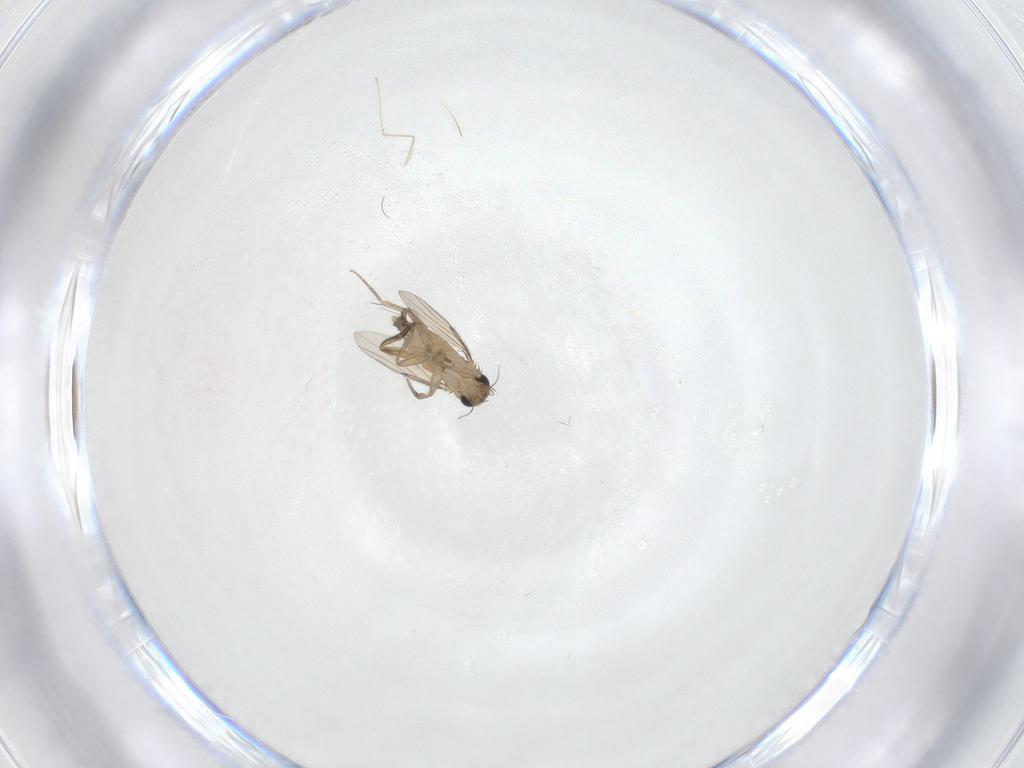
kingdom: Animalia
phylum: Arthropoda
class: Insecta
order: Diptera
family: Cecidomyiidae
